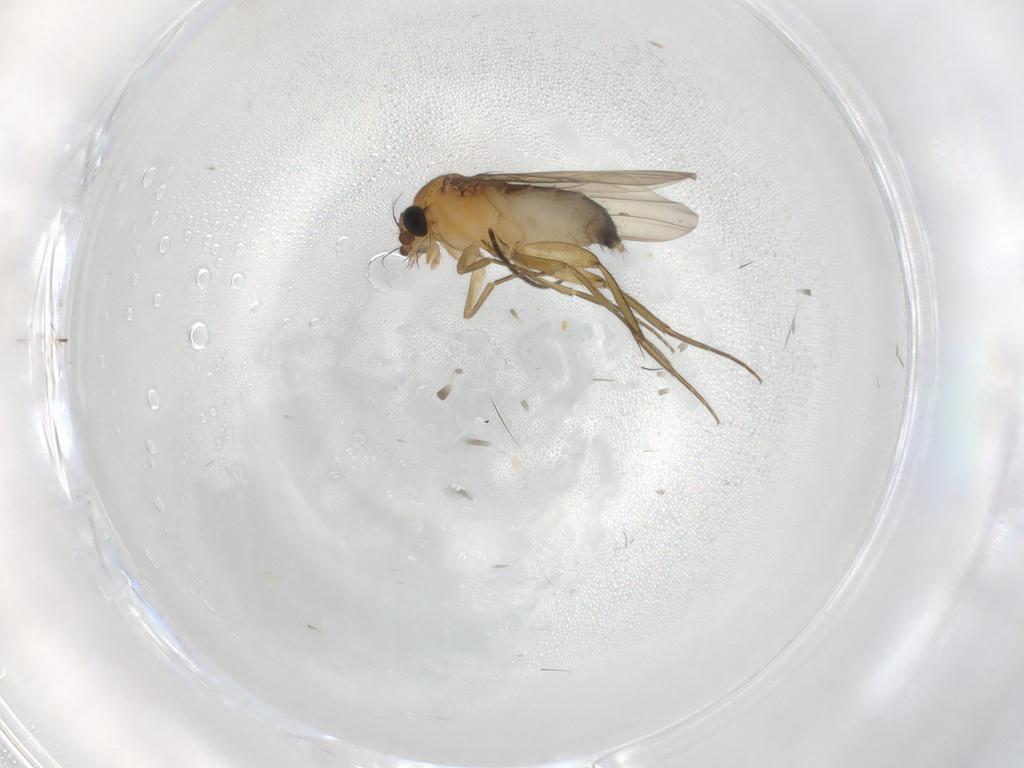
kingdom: Animalia
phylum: Arthropoda
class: Insecta
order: Diptera
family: Phoridae
